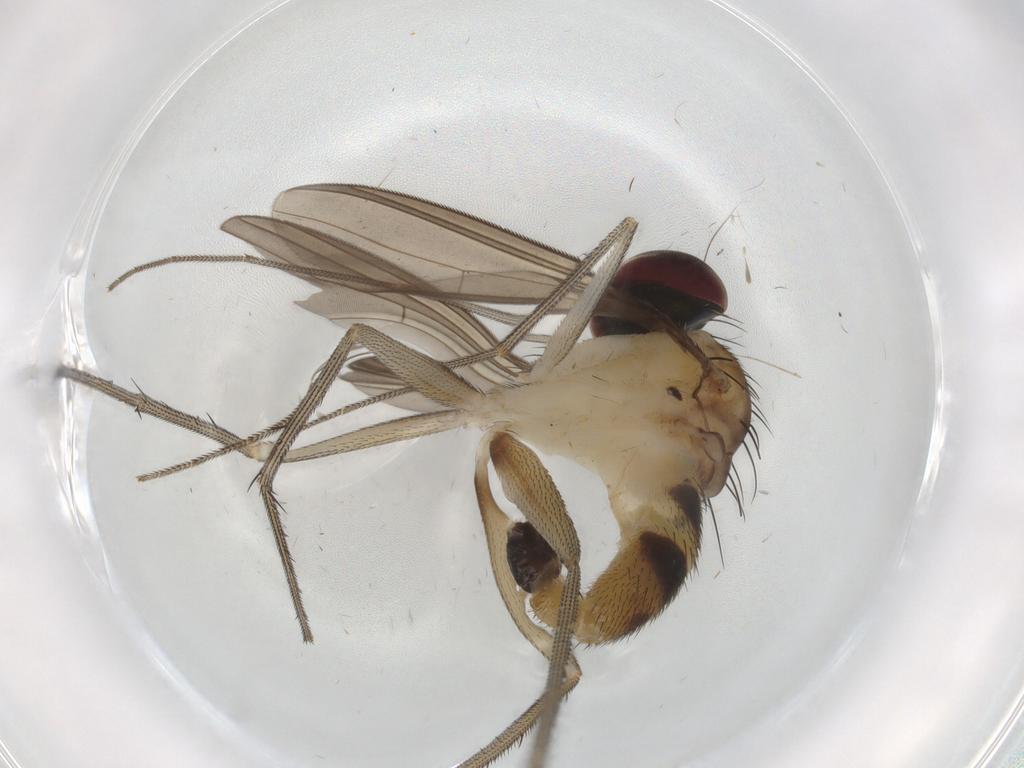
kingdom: Animalia
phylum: Arthropoda
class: Insecta
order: Diptera
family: Dolichopodidae
